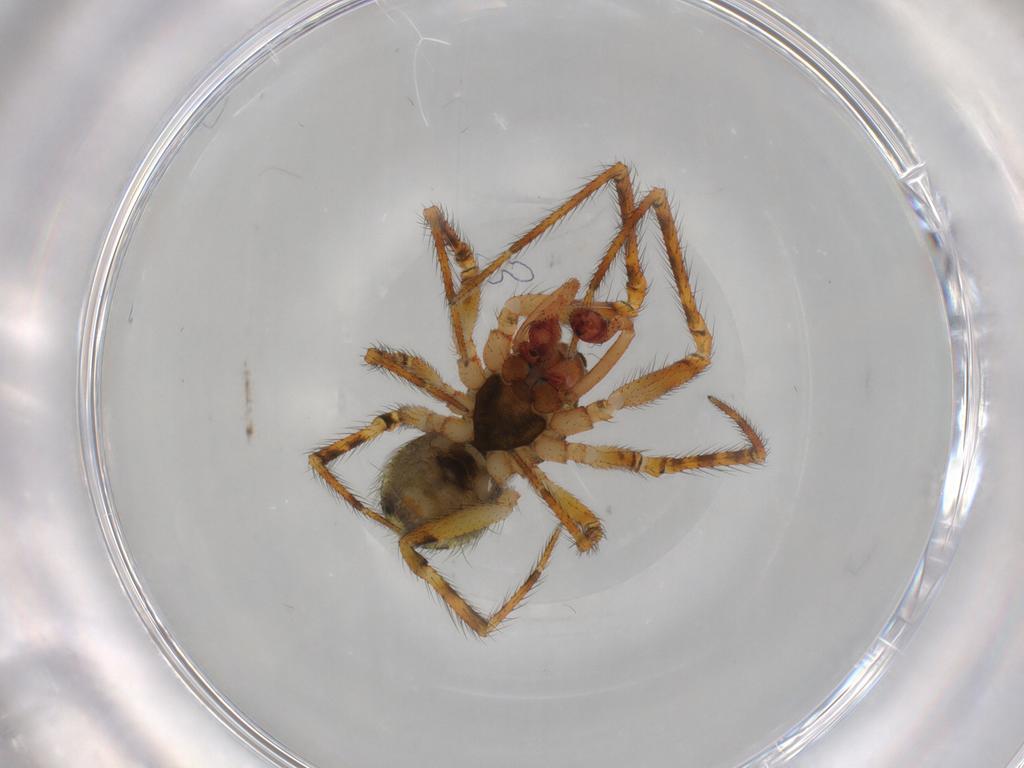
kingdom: Animalia
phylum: Arthropoda
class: Arachnida
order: Araneae
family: Theridiidae
